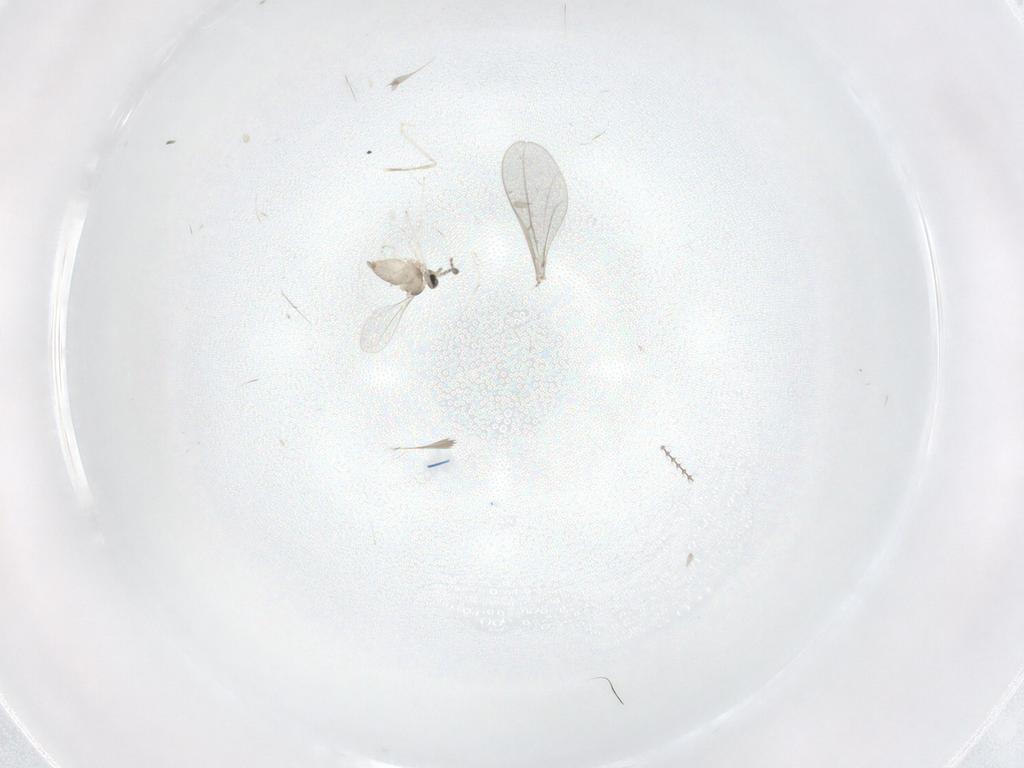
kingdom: Animalia
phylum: Arthropoda
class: Insecta
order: Diptera
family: Cecidomyiidae
